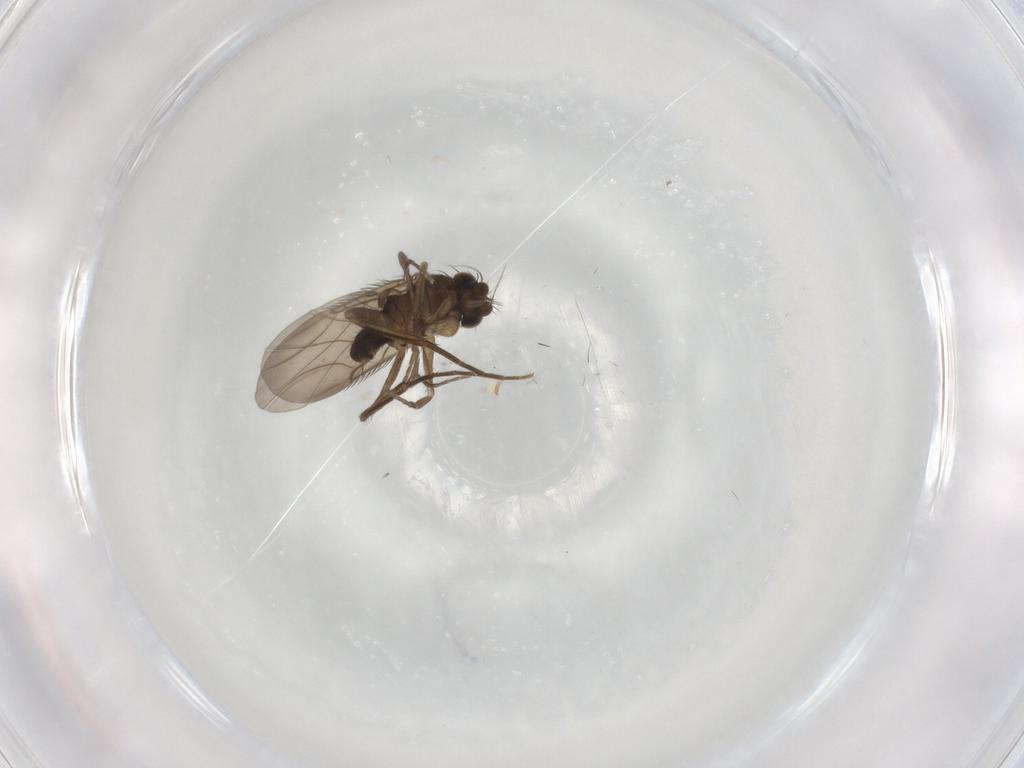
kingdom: Animalia
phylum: Arthropoda
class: Insecta
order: Diptera
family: Phoridae
